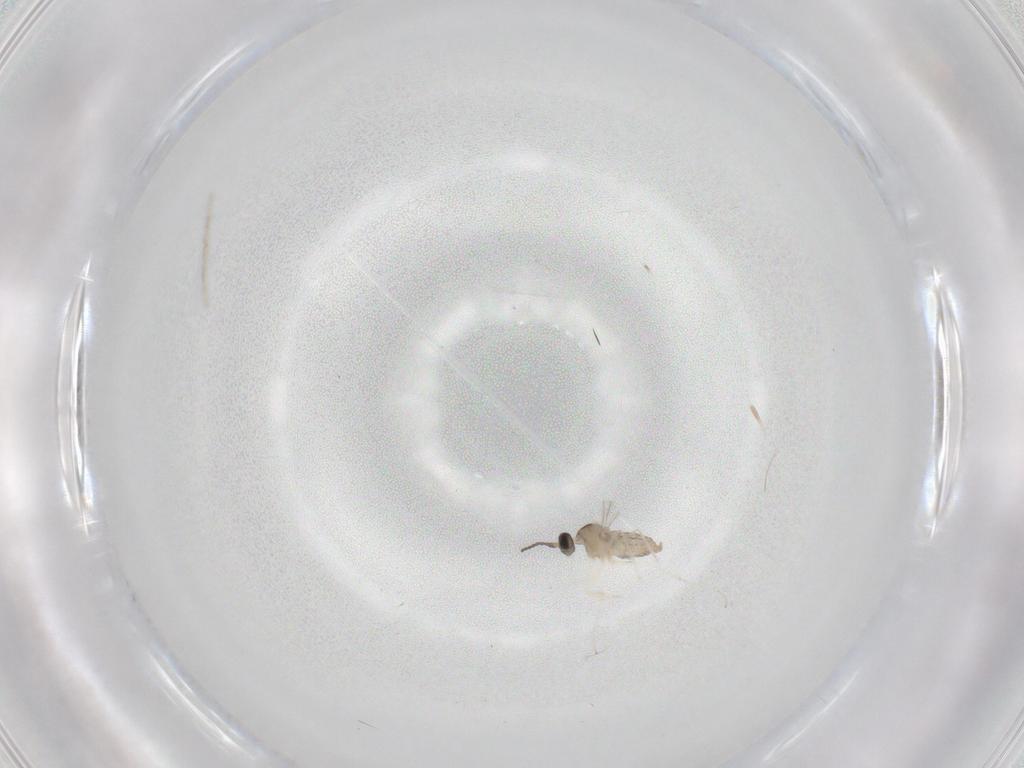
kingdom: Animalia
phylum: Arthropoda
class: Insecta
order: Diptera
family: Cecidomyiidae
